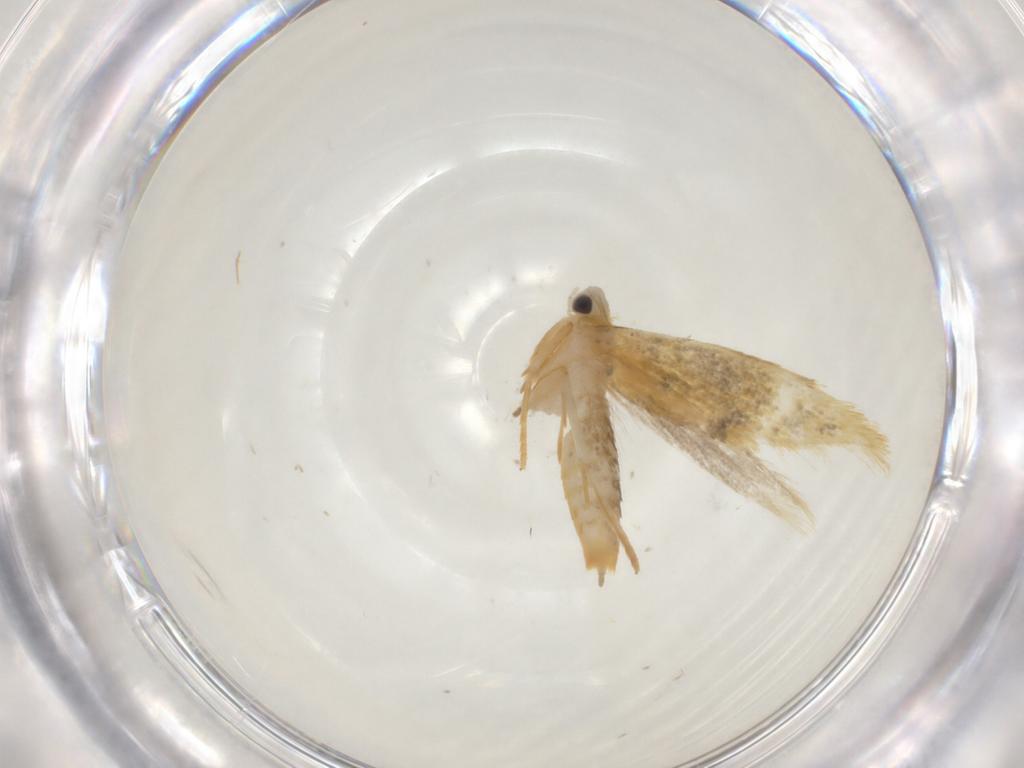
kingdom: Animalia
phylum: Arthropoda
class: Insecta
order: Lepidoptera
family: Nepticulidae
